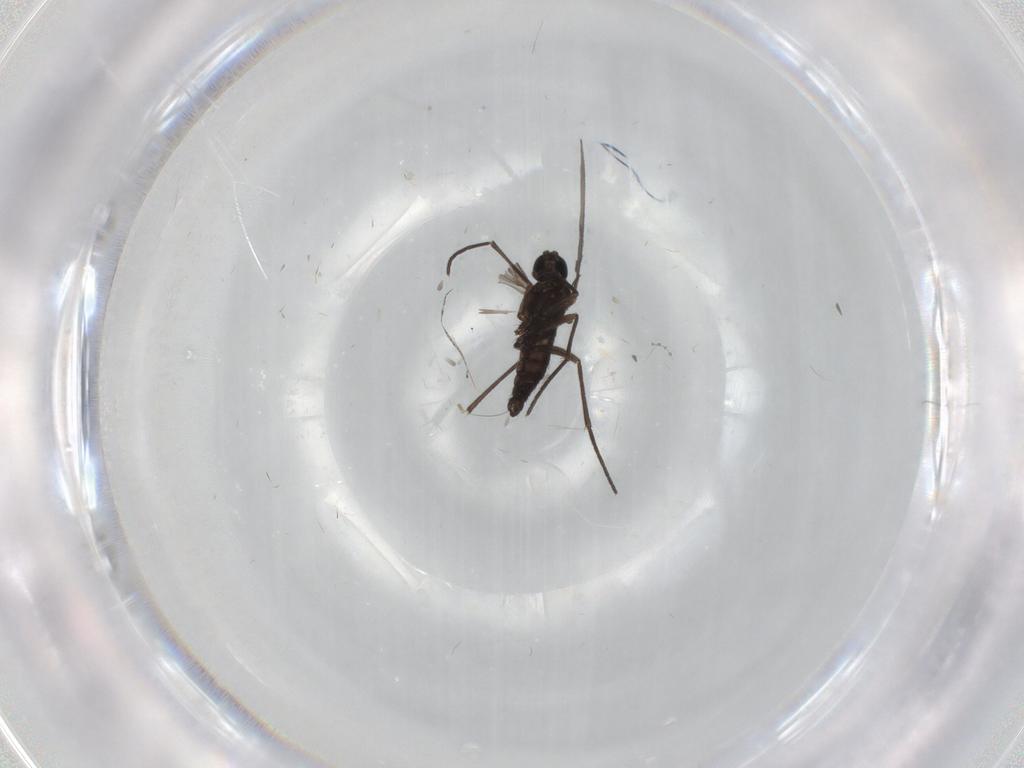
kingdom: Animalia
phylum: Arthropoda
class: Insecta
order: Diptera
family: Sciaridae
